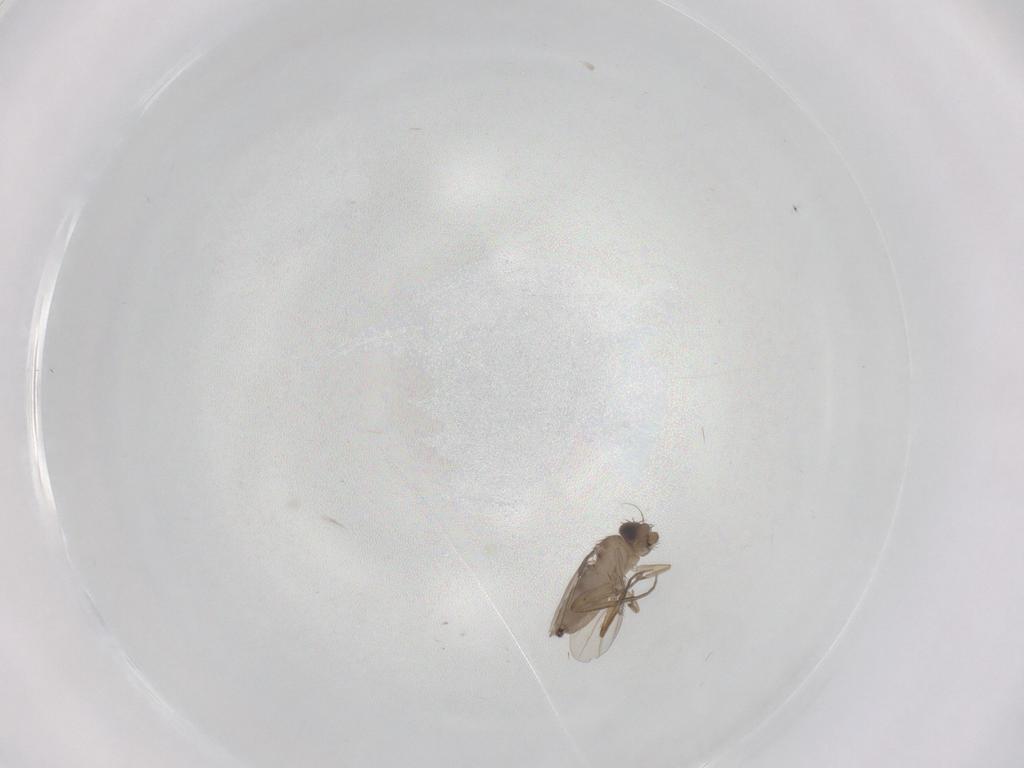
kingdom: Animalia
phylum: Arthropoda
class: Insecta
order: Diptera
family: Phoridae
